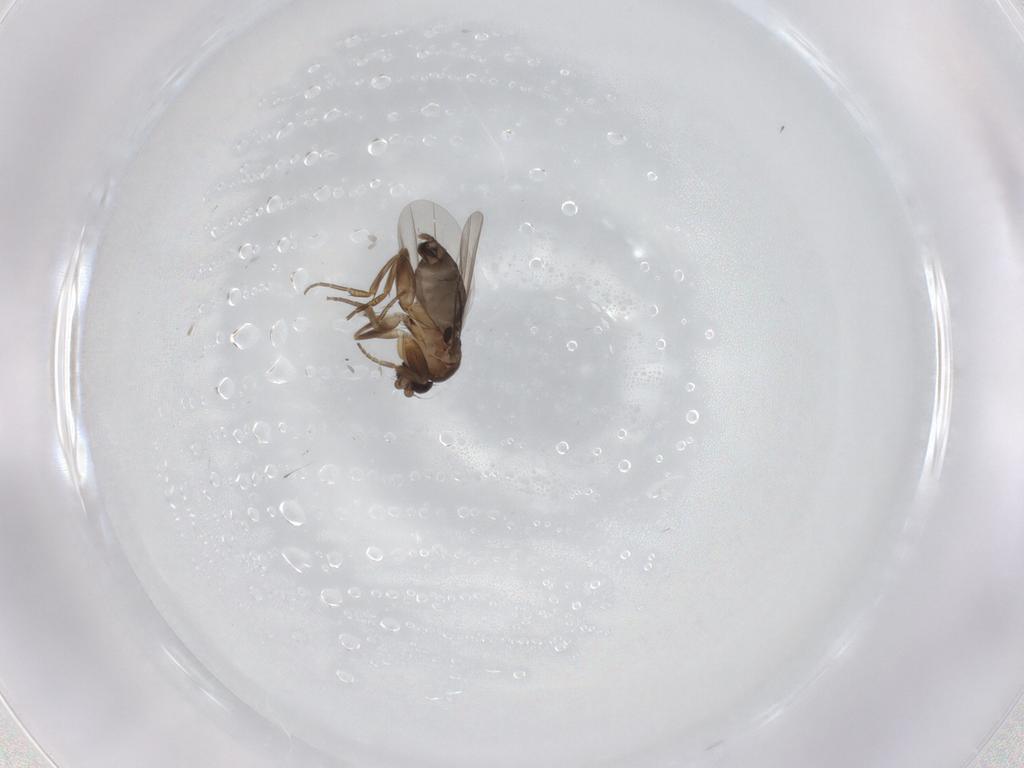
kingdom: Animalia
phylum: Arthropoda
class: Insecta
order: Diptera
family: Phoridae
